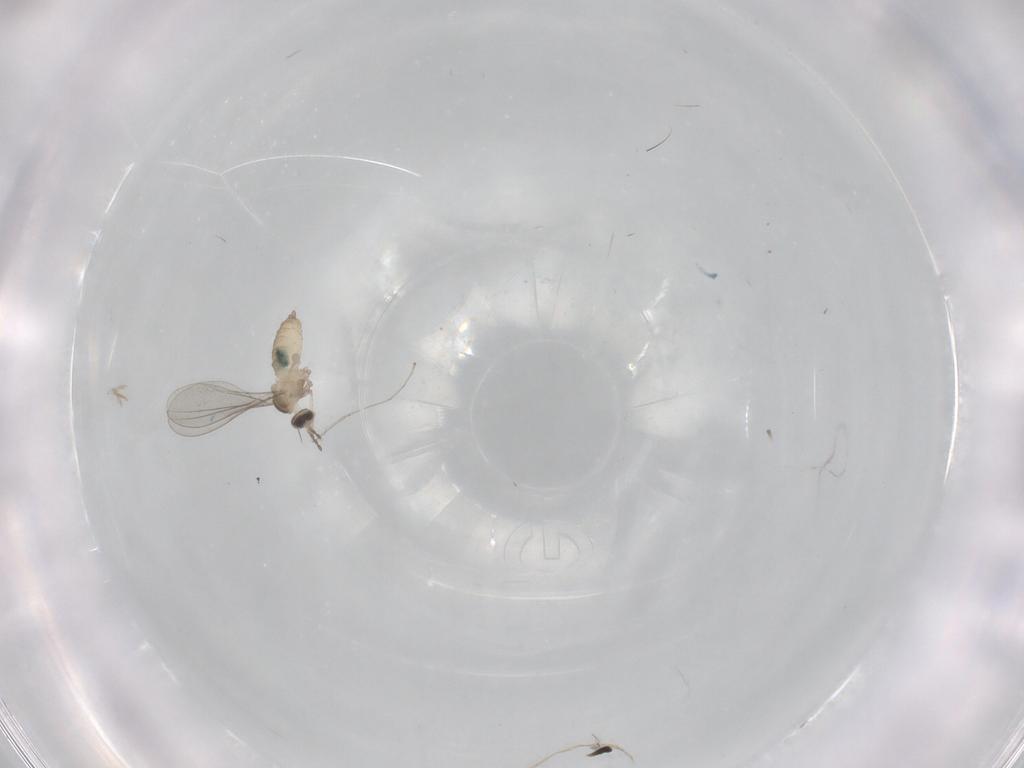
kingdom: Animalia
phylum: Arthropoda
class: Insecta
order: Diptera
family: Cecidomyiidae
